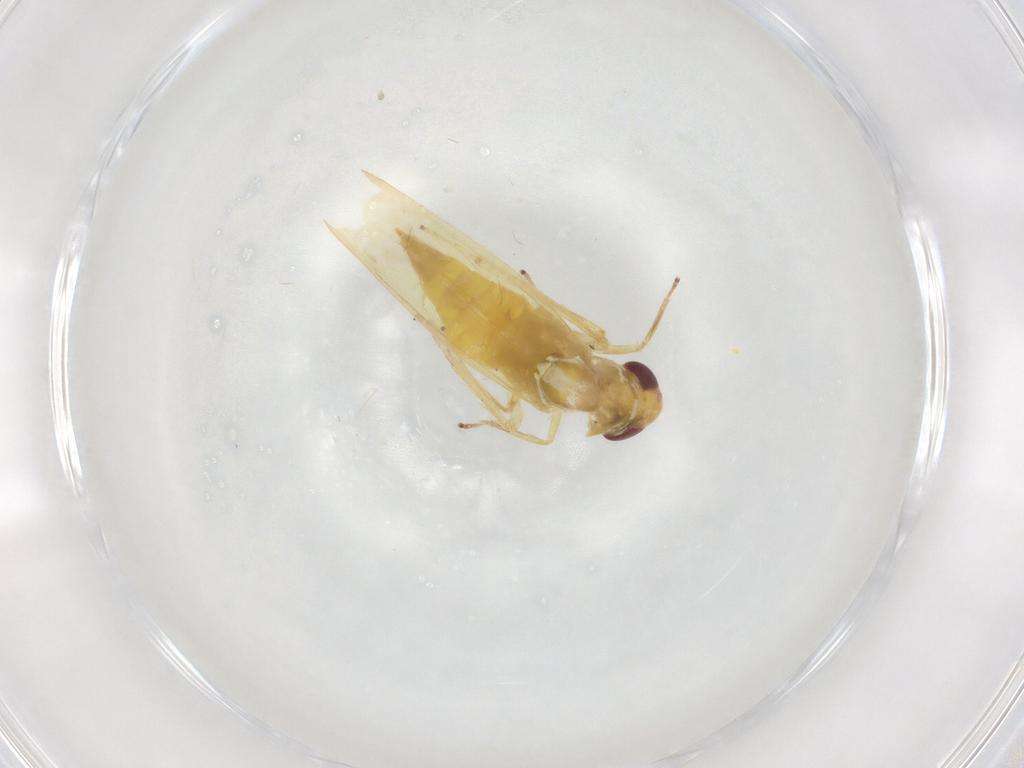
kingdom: Animalia
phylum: Arthropoda
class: Insecta
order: Hemiptera
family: Cicadellidae
